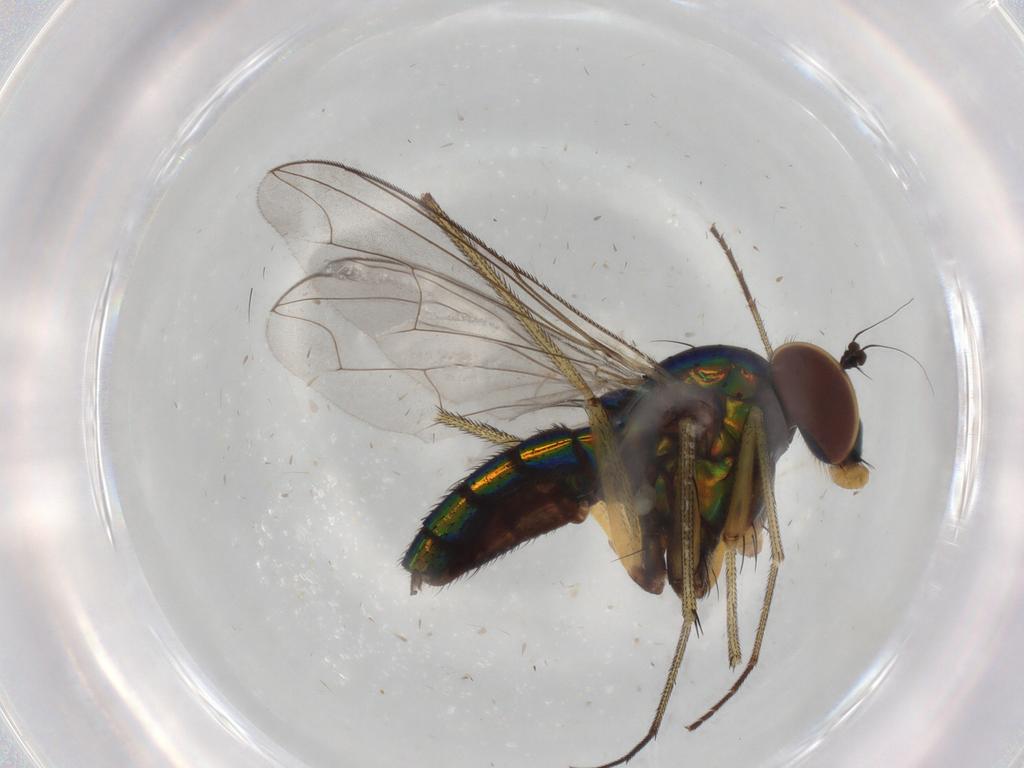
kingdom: Animalia
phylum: Arthropoda
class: Insecta
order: Diptera
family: Dolichopodidae
